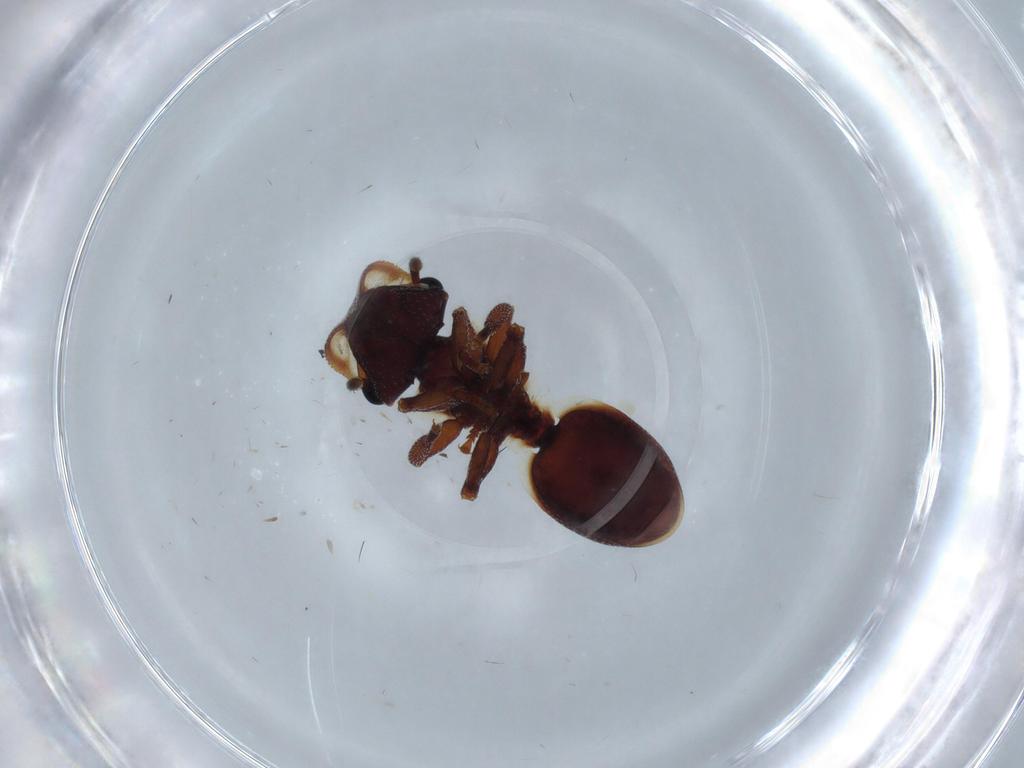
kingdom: Animalia
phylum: Arthropoda
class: Insecta
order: Hymenoptera
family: Formicidae
